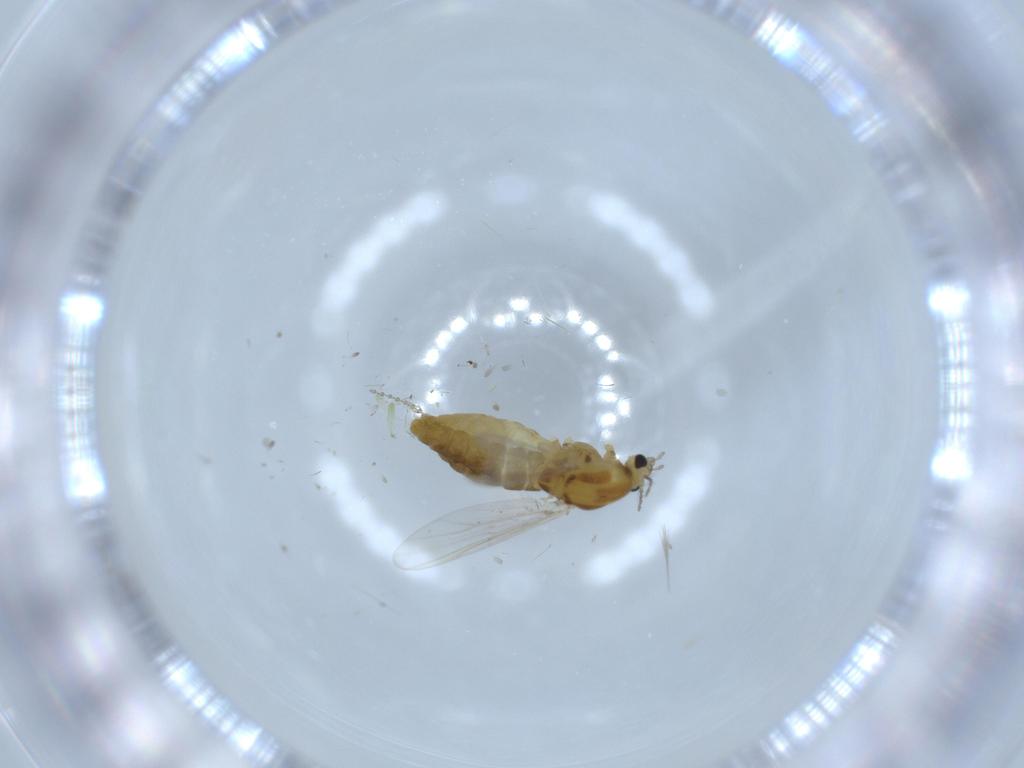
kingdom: Animalia
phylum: Arthropoda
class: Insecta
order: Diptera
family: Chironomidae
